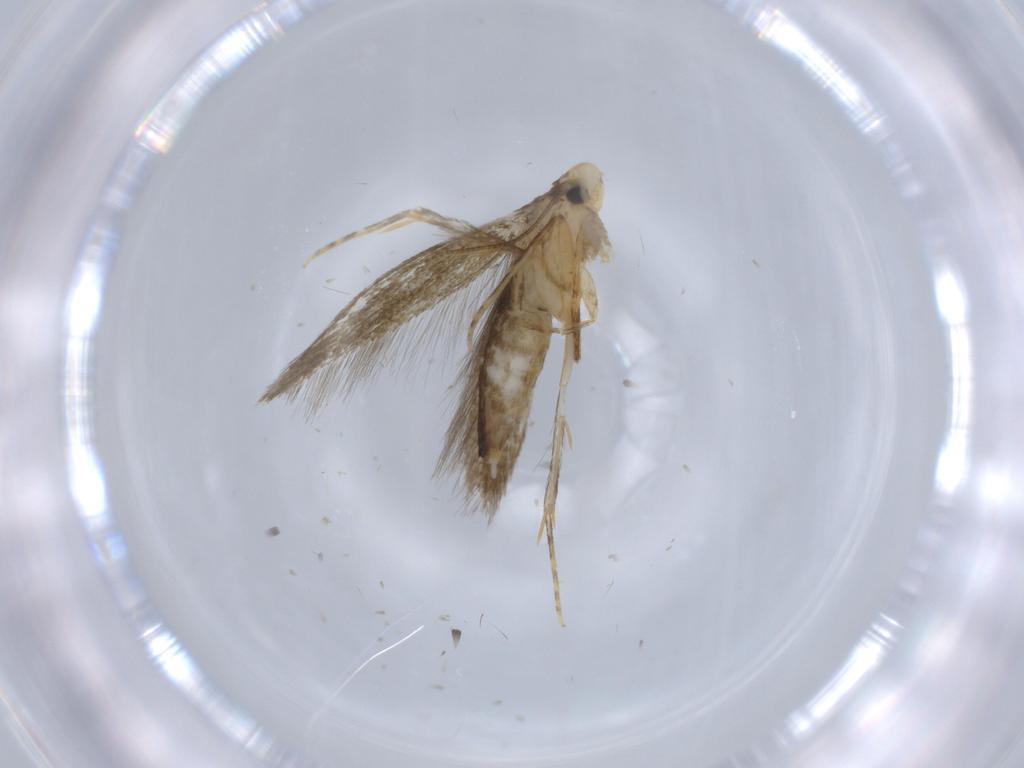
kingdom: Animalia
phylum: Arthropoda
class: Insecta
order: Lepidoptera
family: Tineidae
